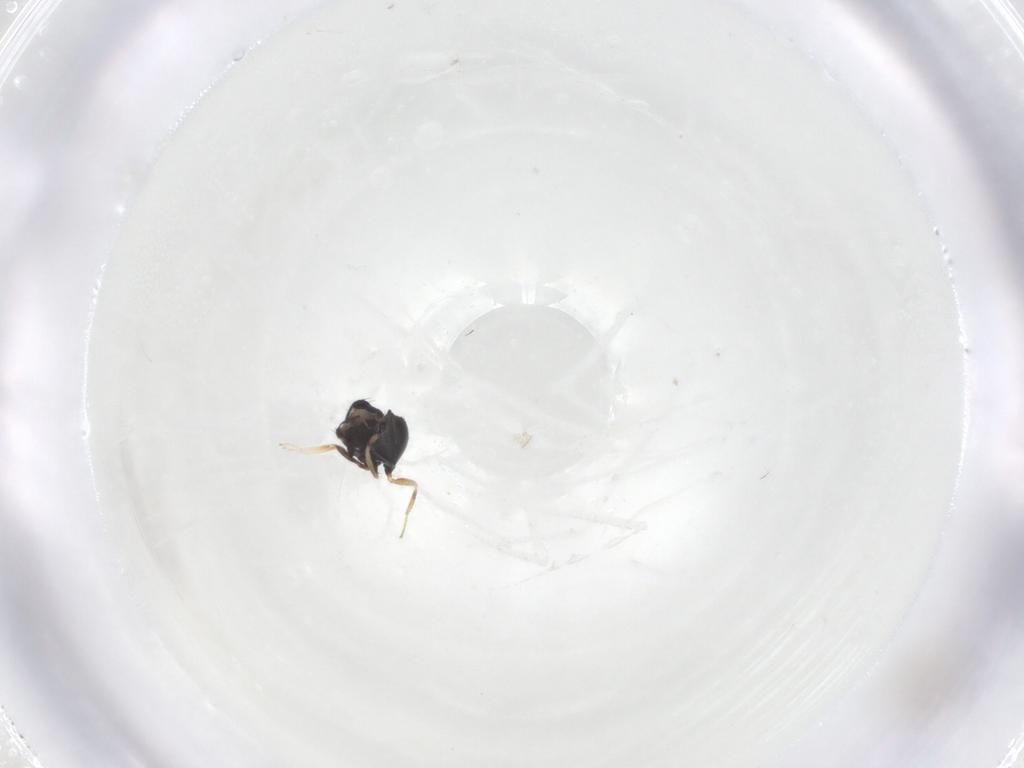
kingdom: Animalia
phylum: Arthropoda
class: Insecta
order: Hymenoptera
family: Eulophidae
